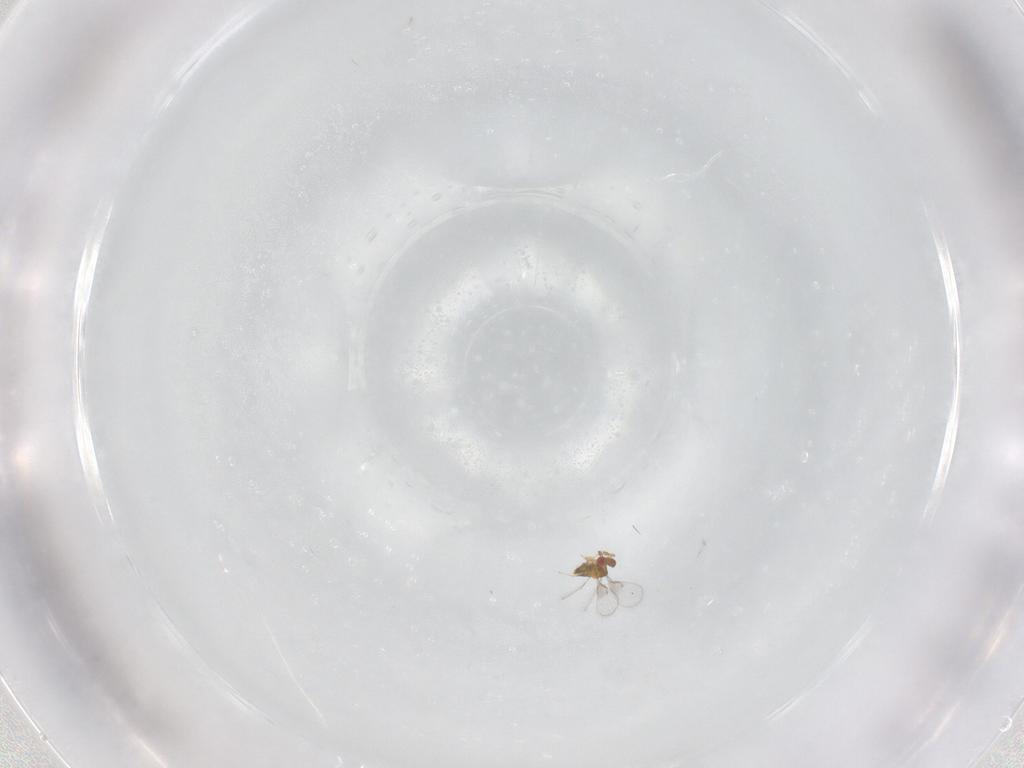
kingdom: Animalia
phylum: Arthropoda
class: Insecta
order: Hymenoptera
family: Trichogrammatidae
